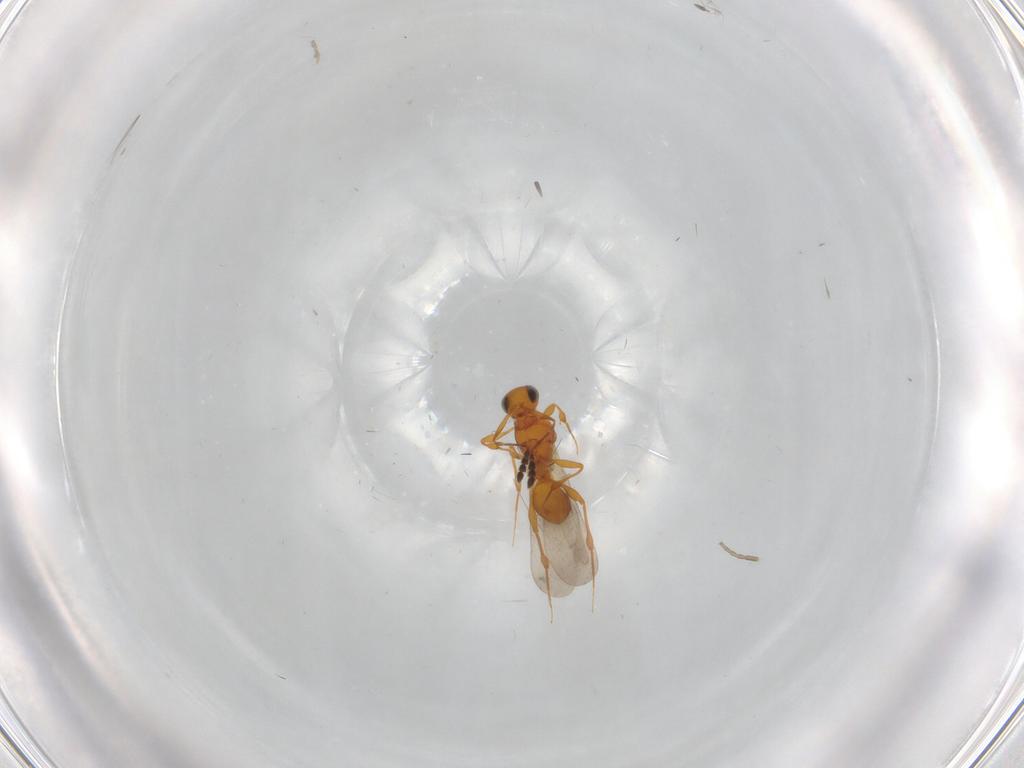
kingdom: Animalia
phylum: Arthropoda
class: Insecta
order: Hymenoptera
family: Platygastridae
